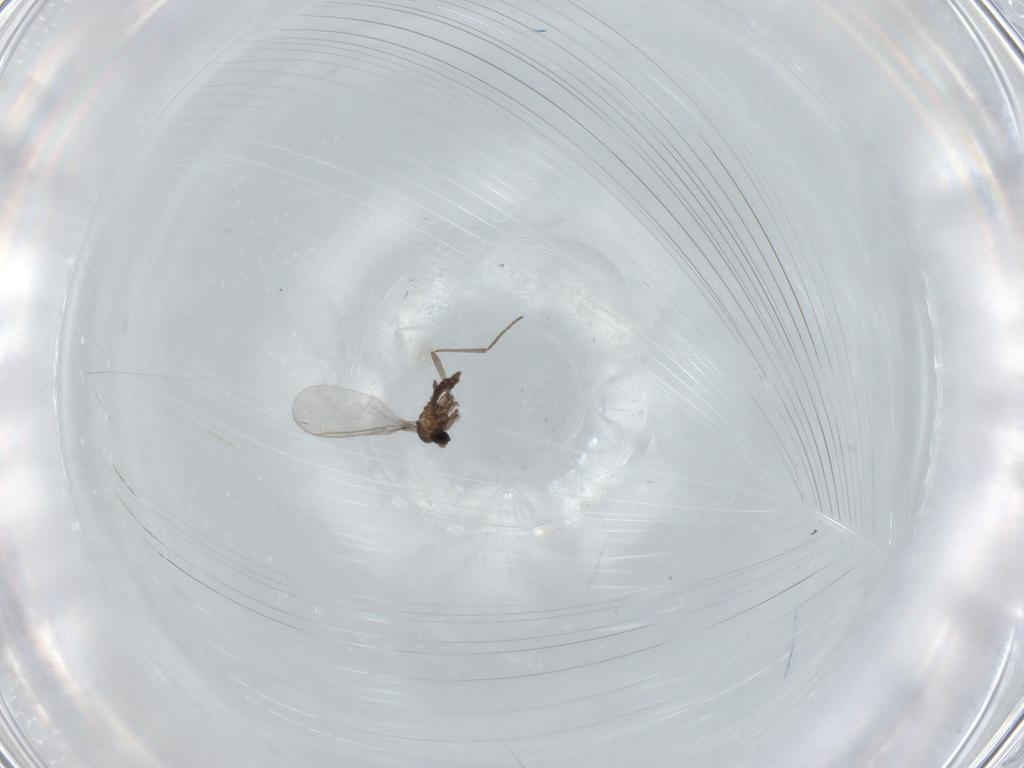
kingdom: Animalia
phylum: Arthropoda
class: Insecta
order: Diptera
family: Sciaridae
